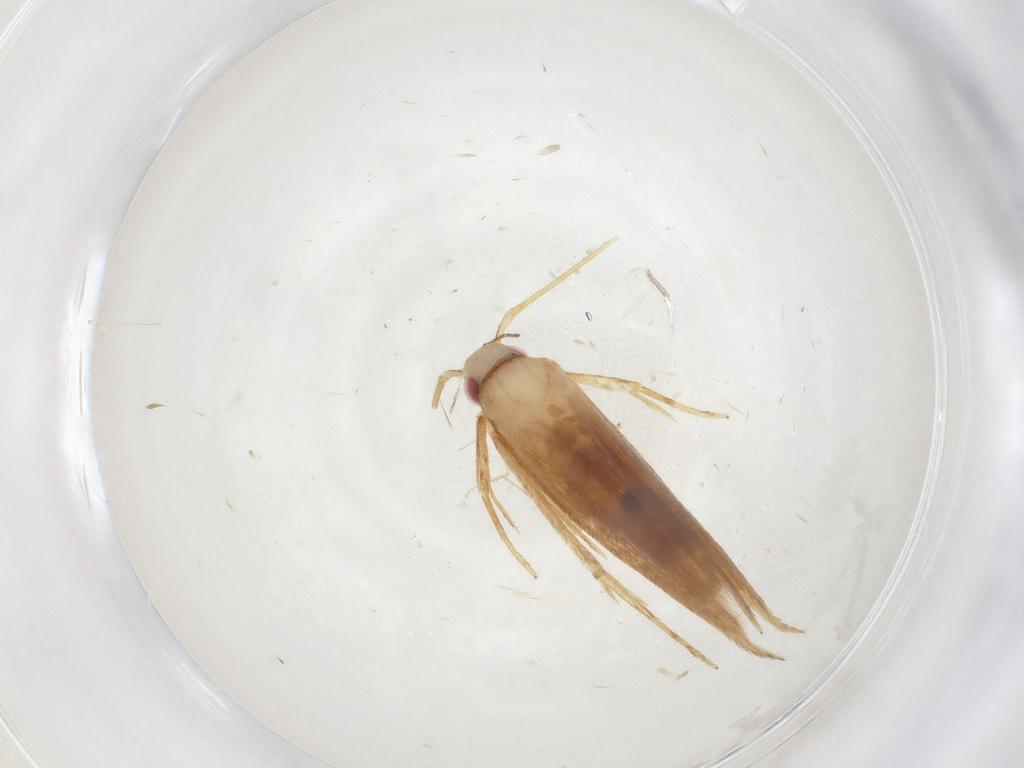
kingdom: Animalia
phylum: Arthropoda
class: Insecta
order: Lepidoptera
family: Cosmopterigidae
